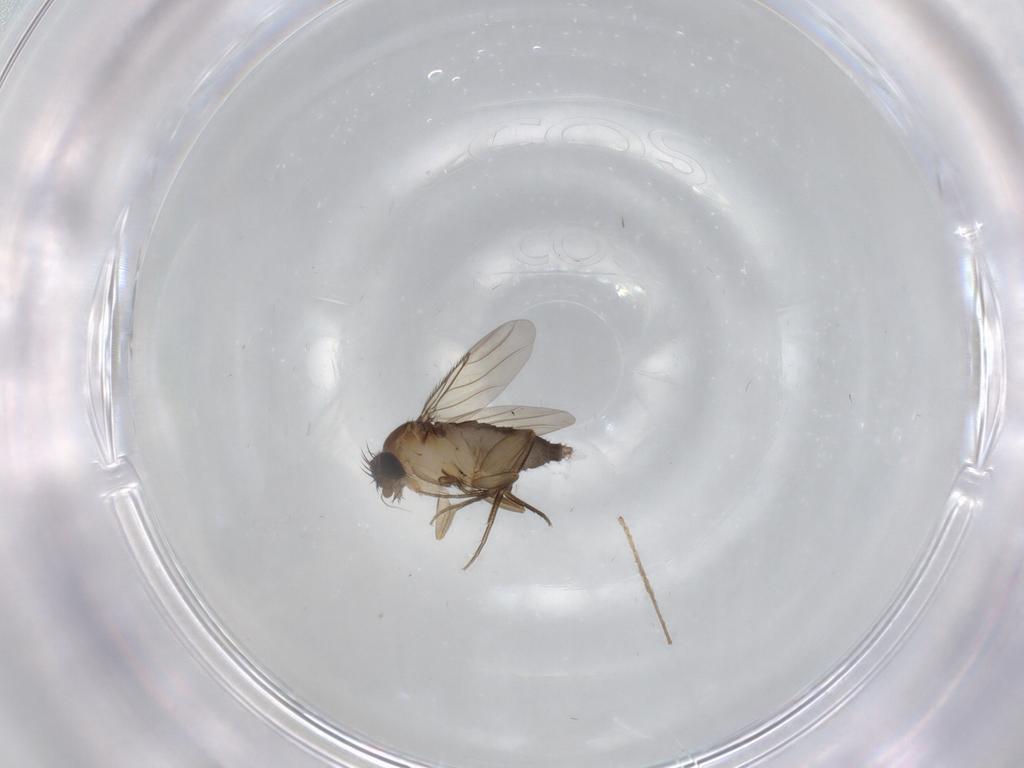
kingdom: Animalia
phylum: Arthropoda
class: Insecta
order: Diptera
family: Phoridae
